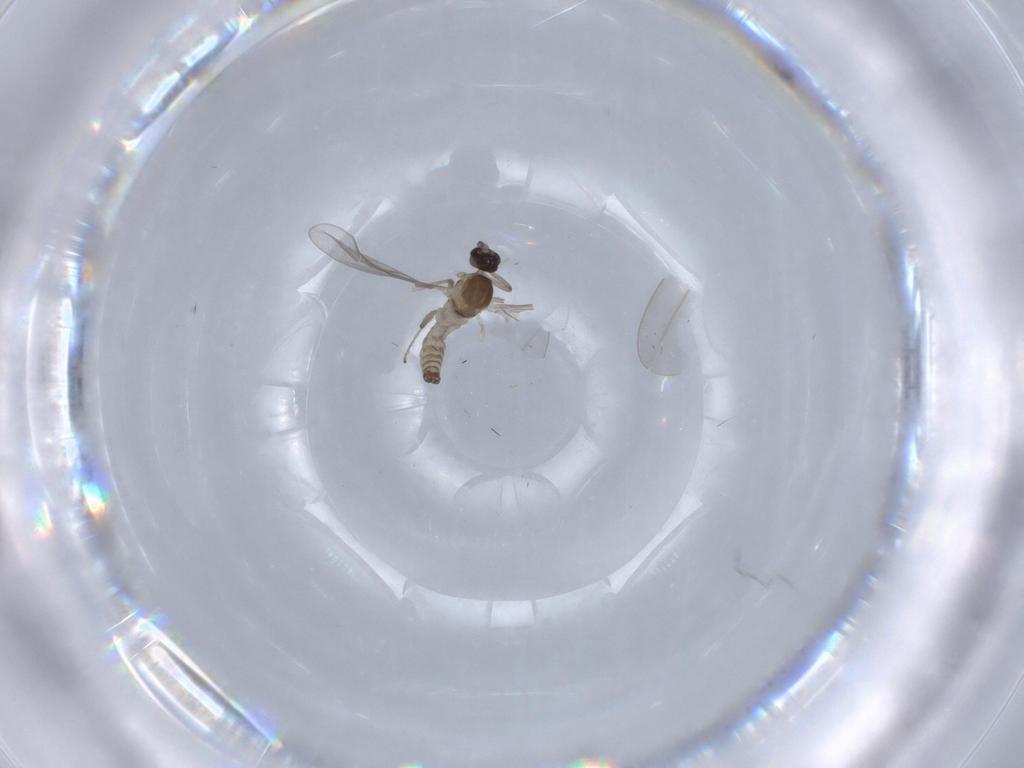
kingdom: Animalia
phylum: Arthropoda
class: Insecta
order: Diptera
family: Cecidomyiidae
